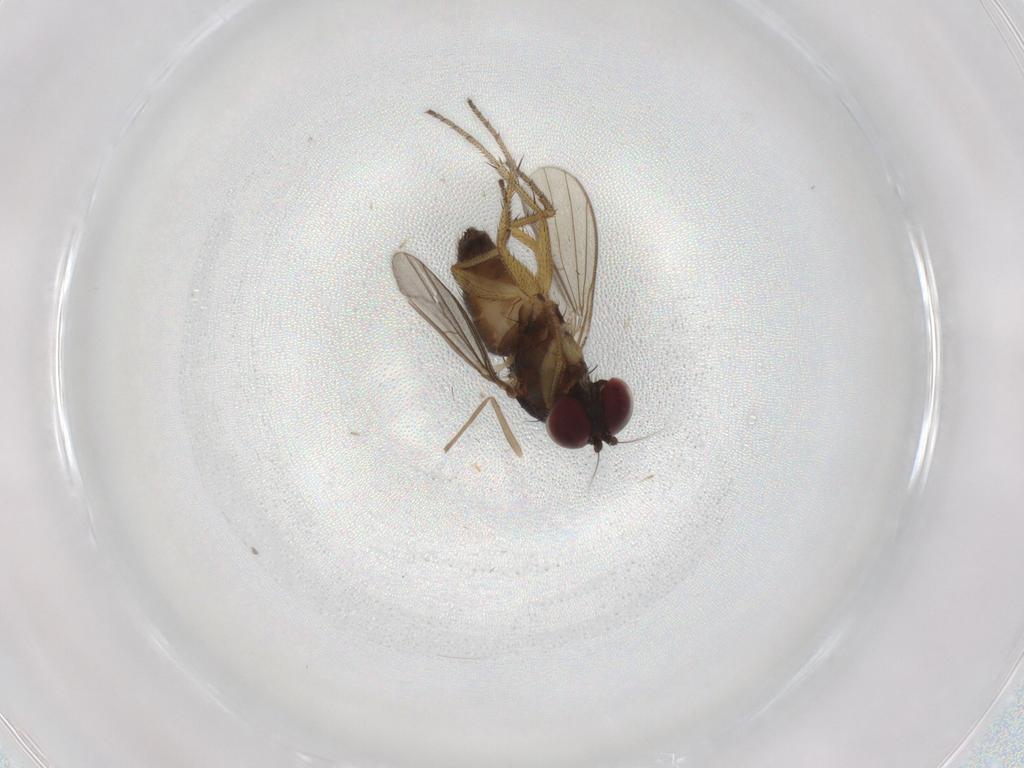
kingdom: Animalia
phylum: Arthropoda
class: Insecta
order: Diptera
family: Dolichopodidae
